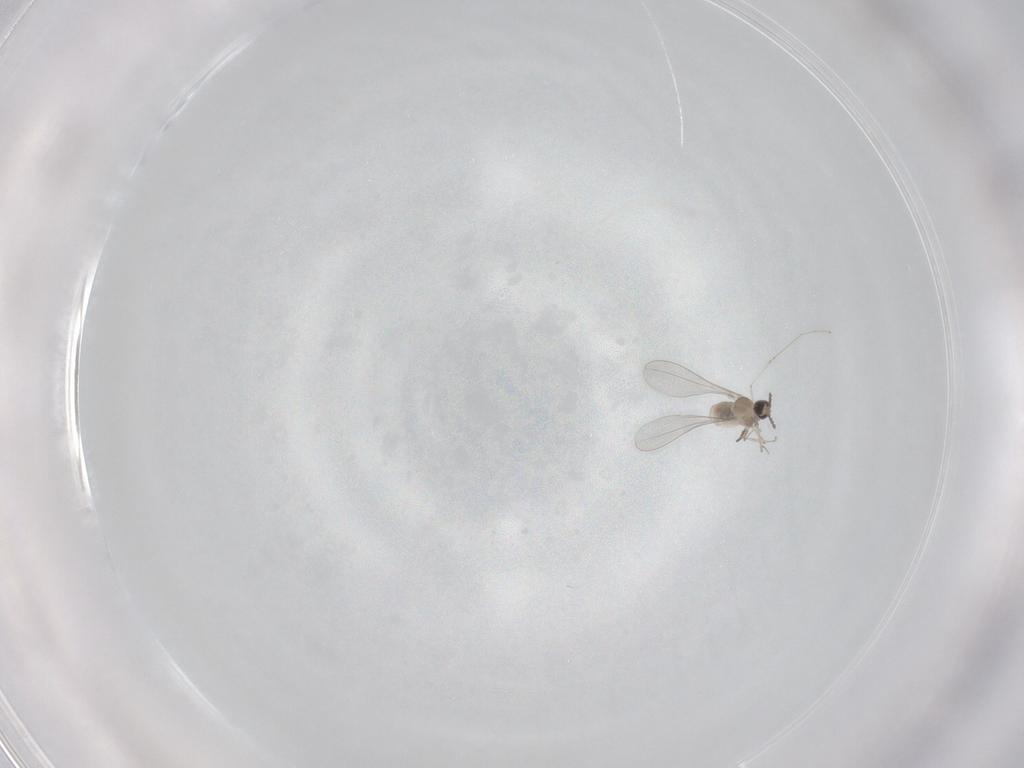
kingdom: Animalia
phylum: Arthropoda
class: Insecta
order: Diptera
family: Cecidomyiidae
